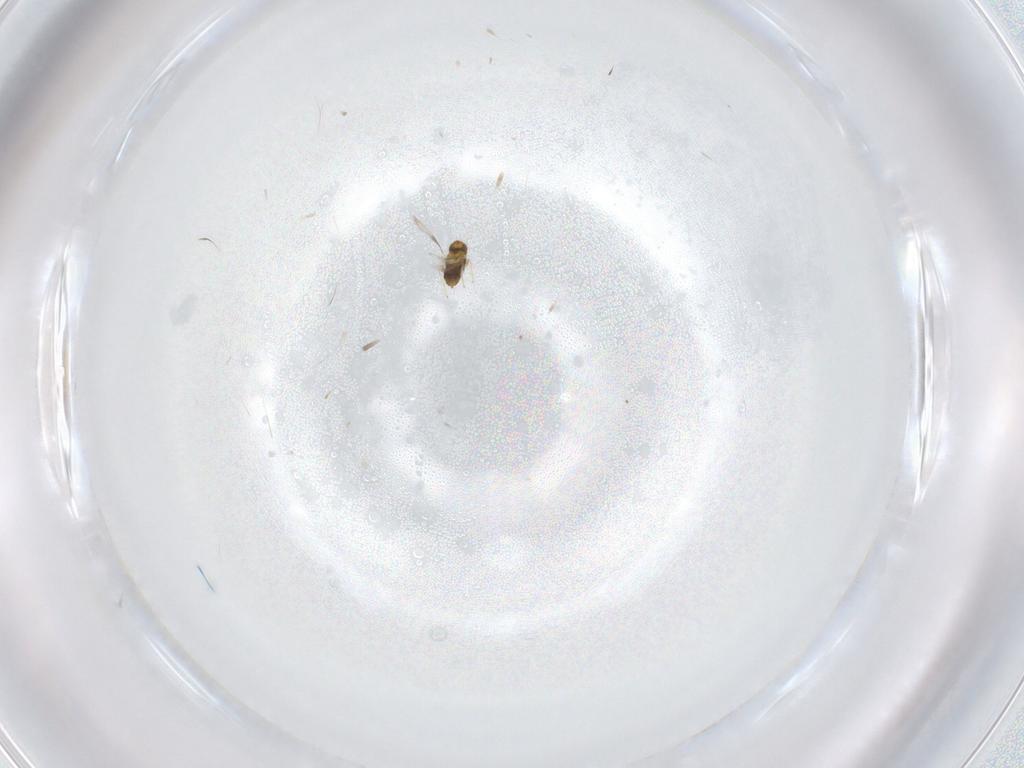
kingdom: Animalia
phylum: Arthropoda
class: Insecta
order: Hymenoptera
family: Aphelinidae
